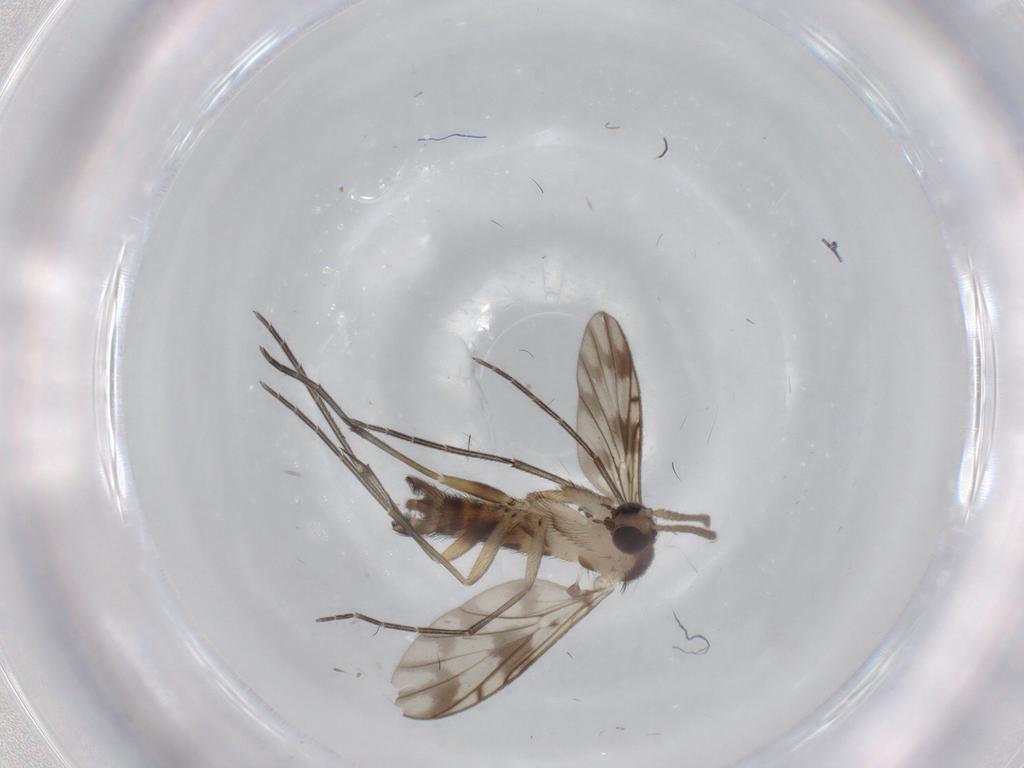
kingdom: Animalia
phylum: Arthropoda
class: Insecta
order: Diptera
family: Keroplatidae
